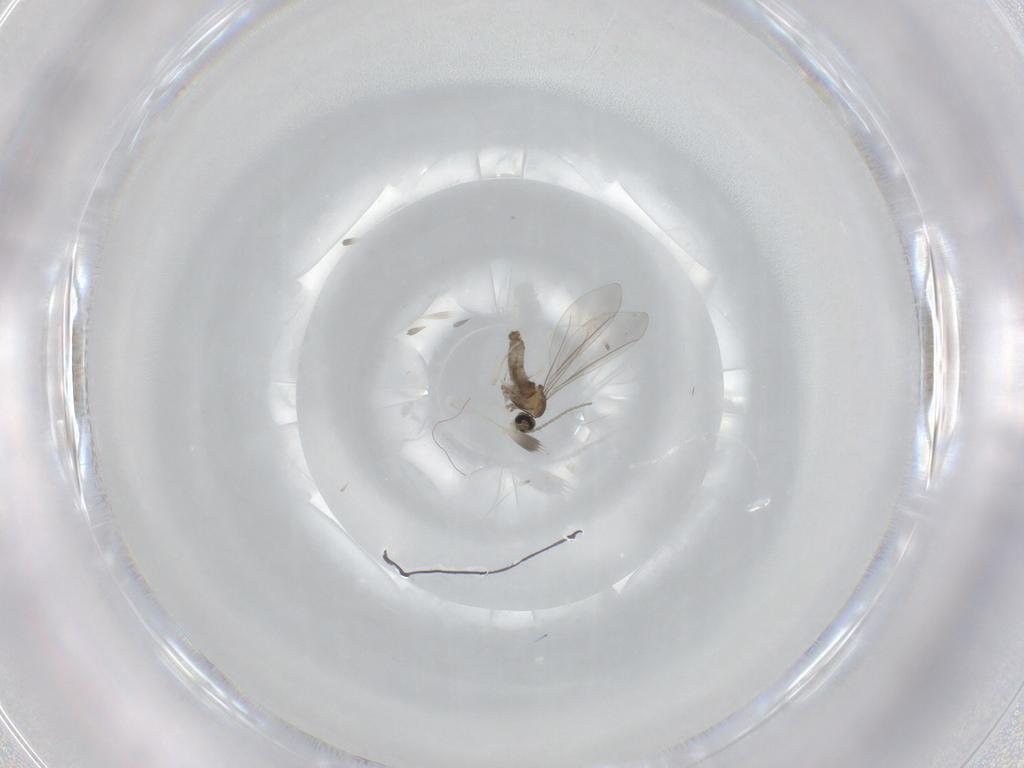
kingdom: Animalia
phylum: Arthropoda
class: Insecta
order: Diptera
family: Cecidomyiidae
